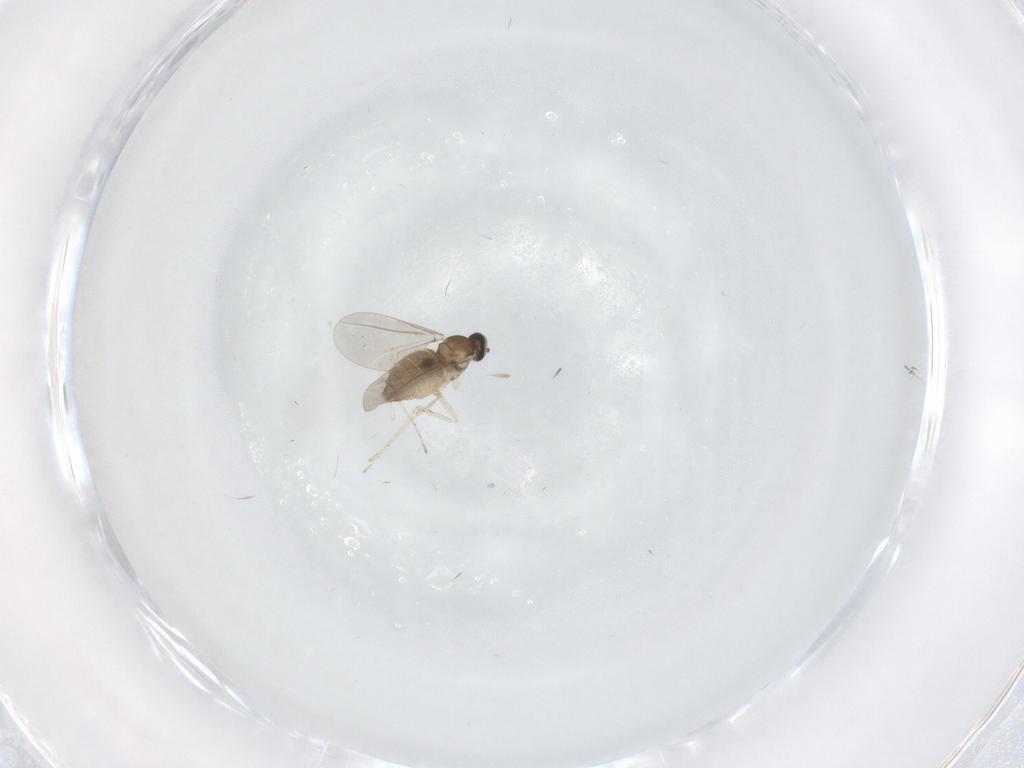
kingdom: Animalia
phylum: Arthropoda
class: Insecta
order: Diptera
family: Cecidomyiidae
